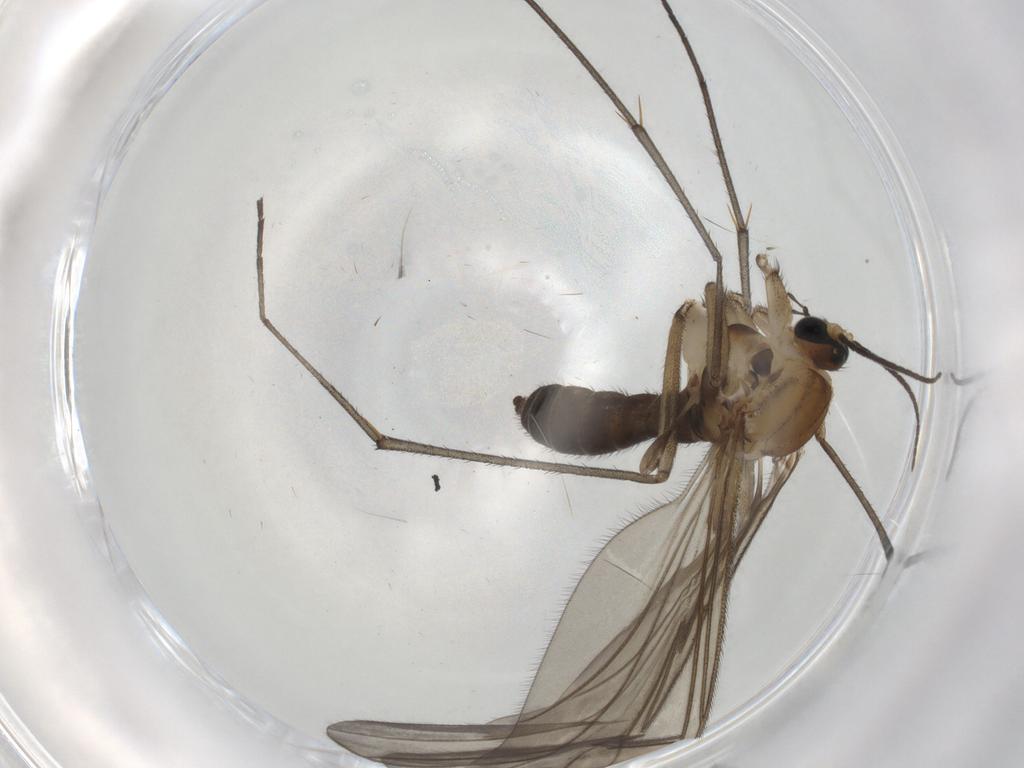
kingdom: Animalia
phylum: Arthropoda
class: Insecta
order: Diptera
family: Sciaridae
